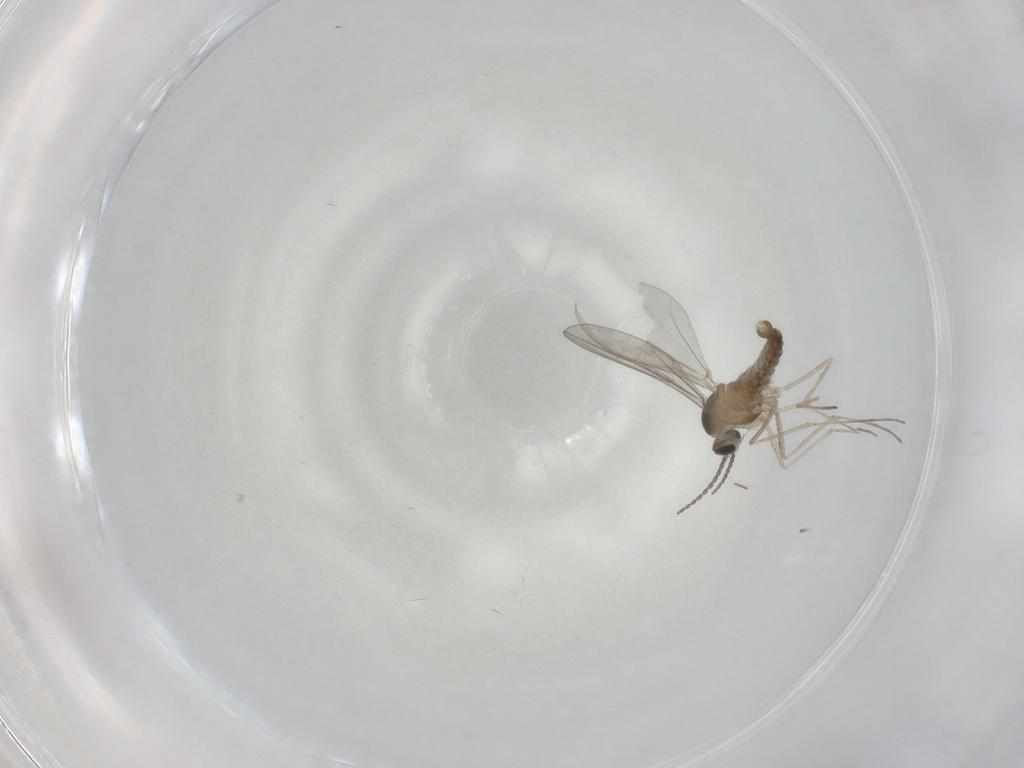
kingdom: Animalia
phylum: Arthropoda
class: Insecta
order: Diptera
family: Cecidomyiidae
